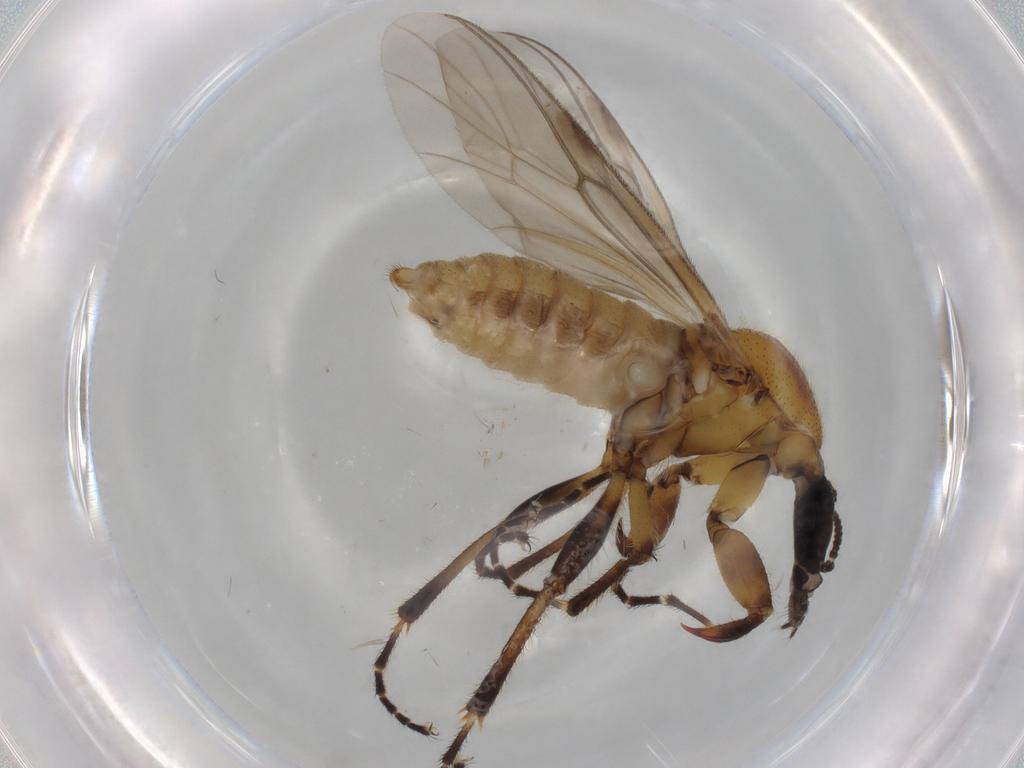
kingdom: Animalia
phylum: Arthropoda
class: Insecta
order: Diptera
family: Bibionidae
